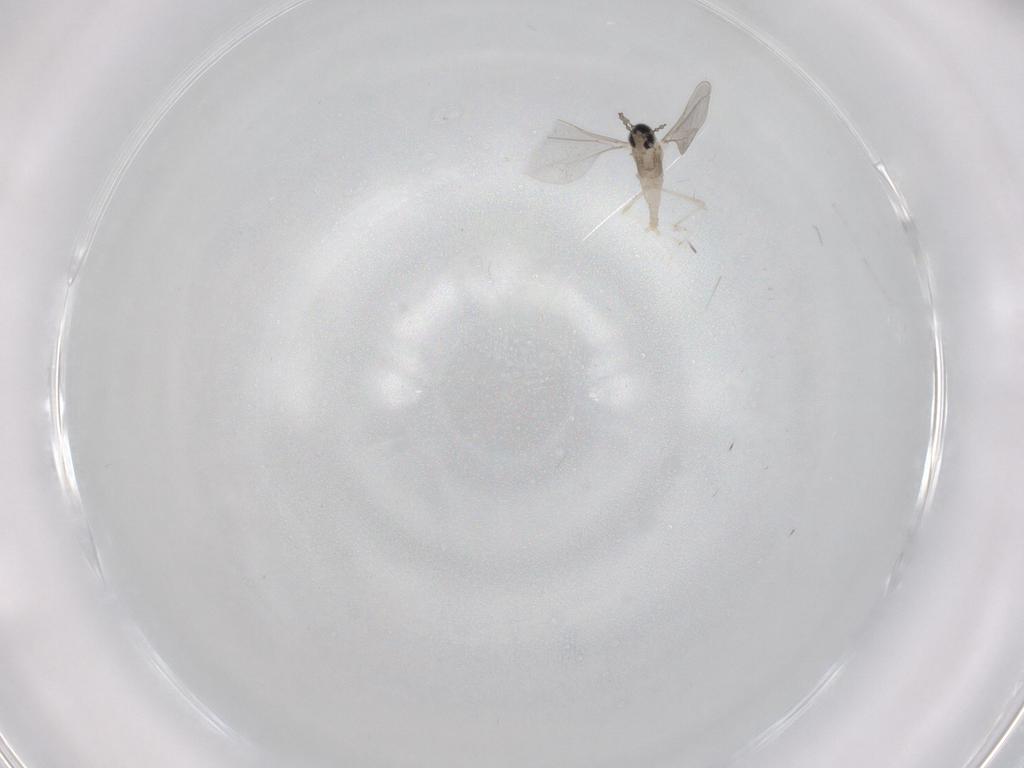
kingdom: Animalia
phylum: Arthropoda
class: Insecta
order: Diptera
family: Cecidomyiidae
